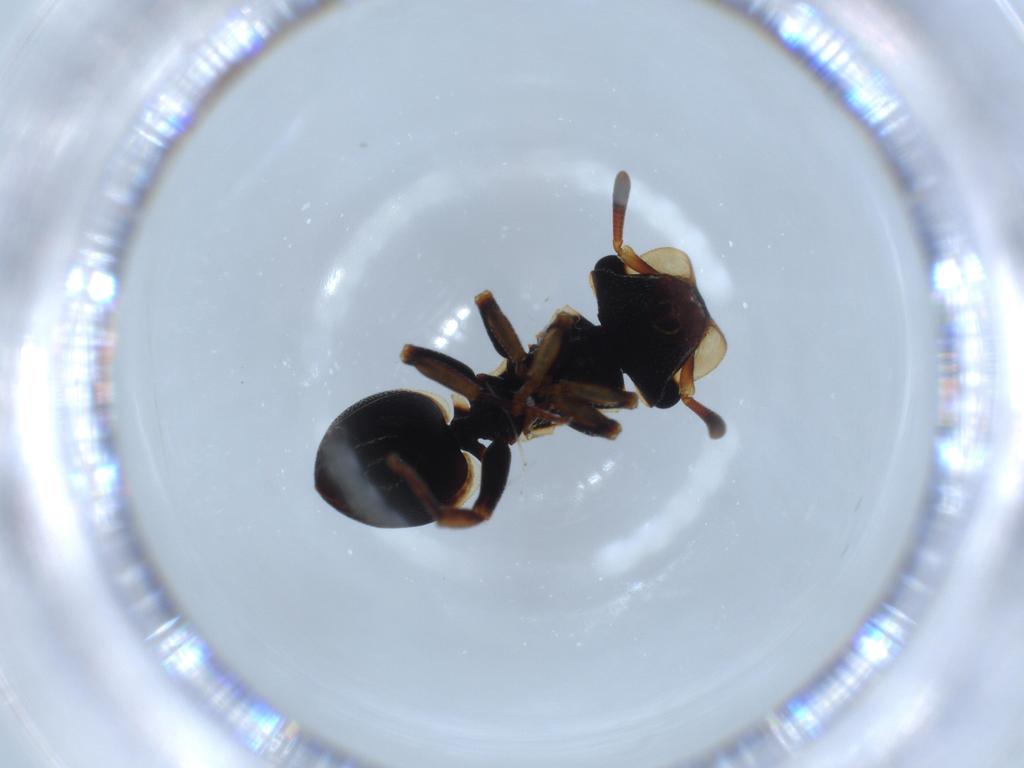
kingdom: Animalia
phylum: Arthropoda
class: Insecta
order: Hymenoptera
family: Formicidae
